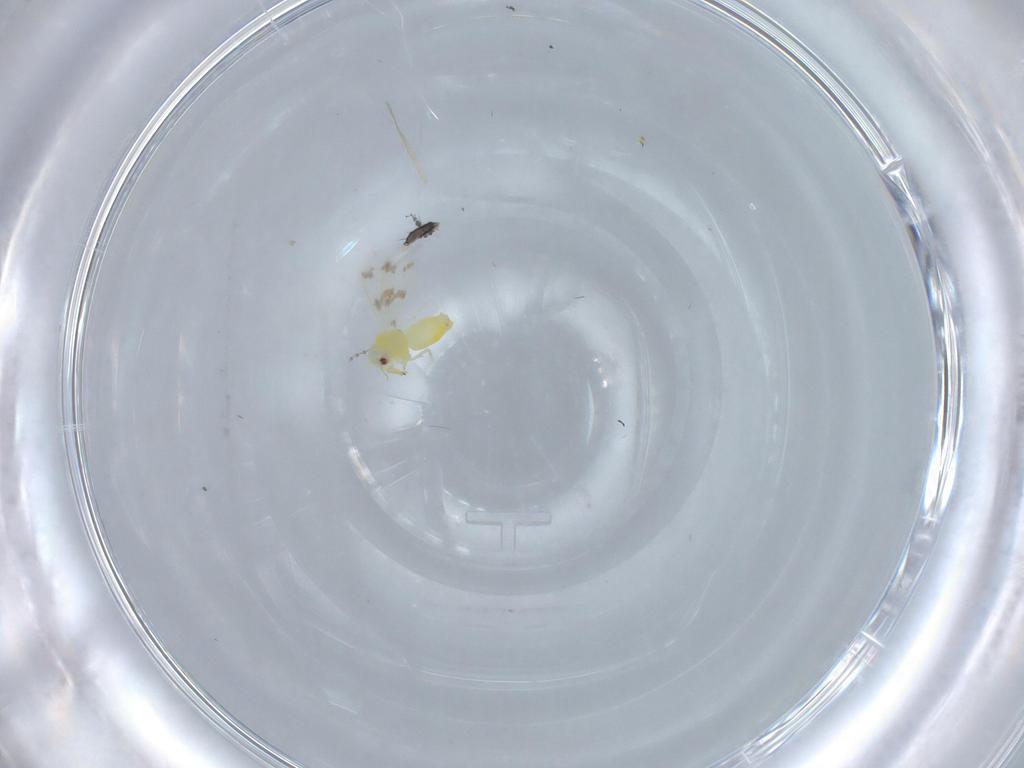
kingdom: Animalia
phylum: Arthropoda
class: Insecta
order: Hemiptera
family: Aleyrodidae
